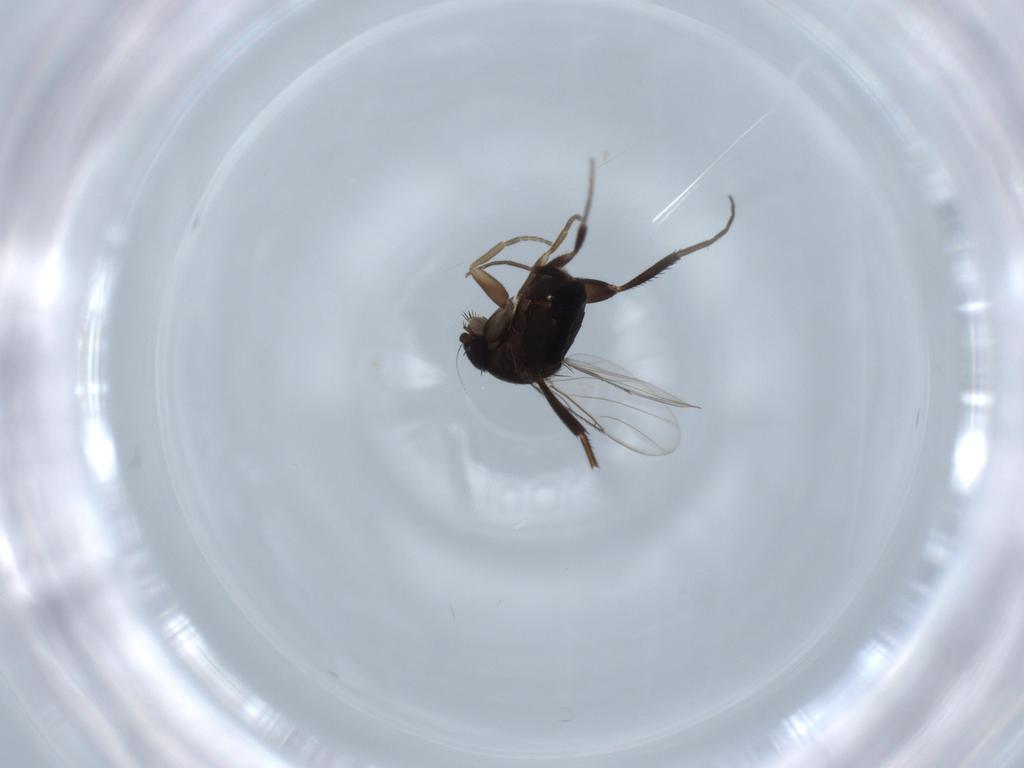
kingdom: Animalia
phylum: Arthropoda
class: Insecta
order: Diptera
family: Phoridae
